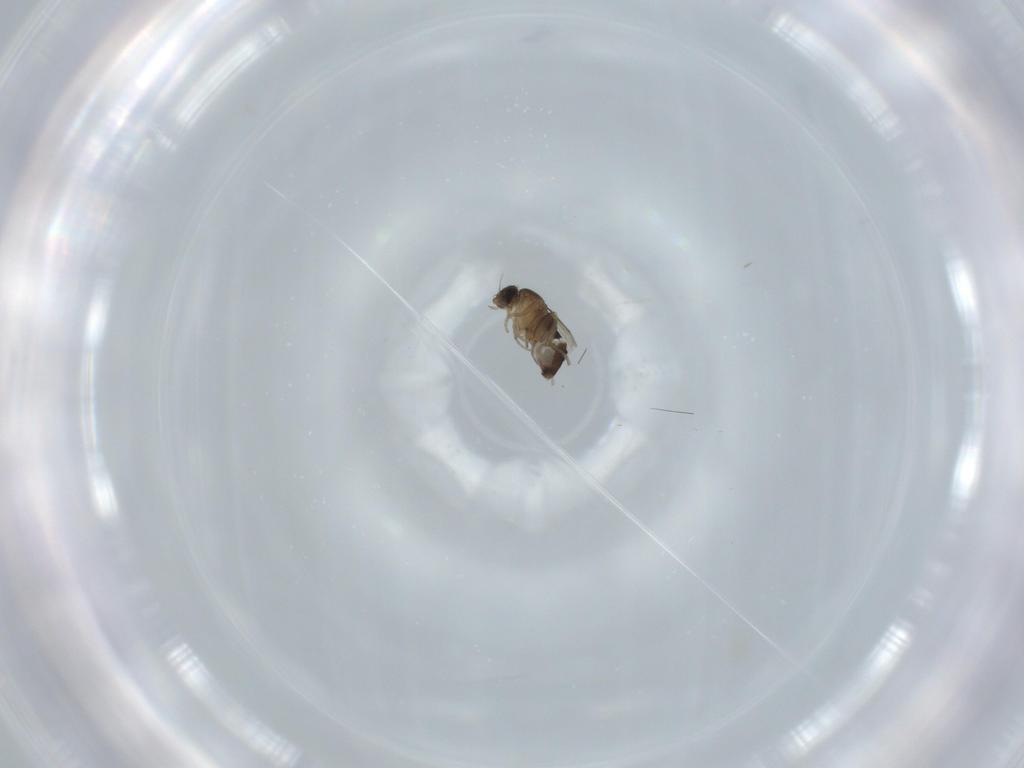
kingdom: Animalia
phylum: Arthropoda
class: Insecta
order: Diptera
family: Phoridae
